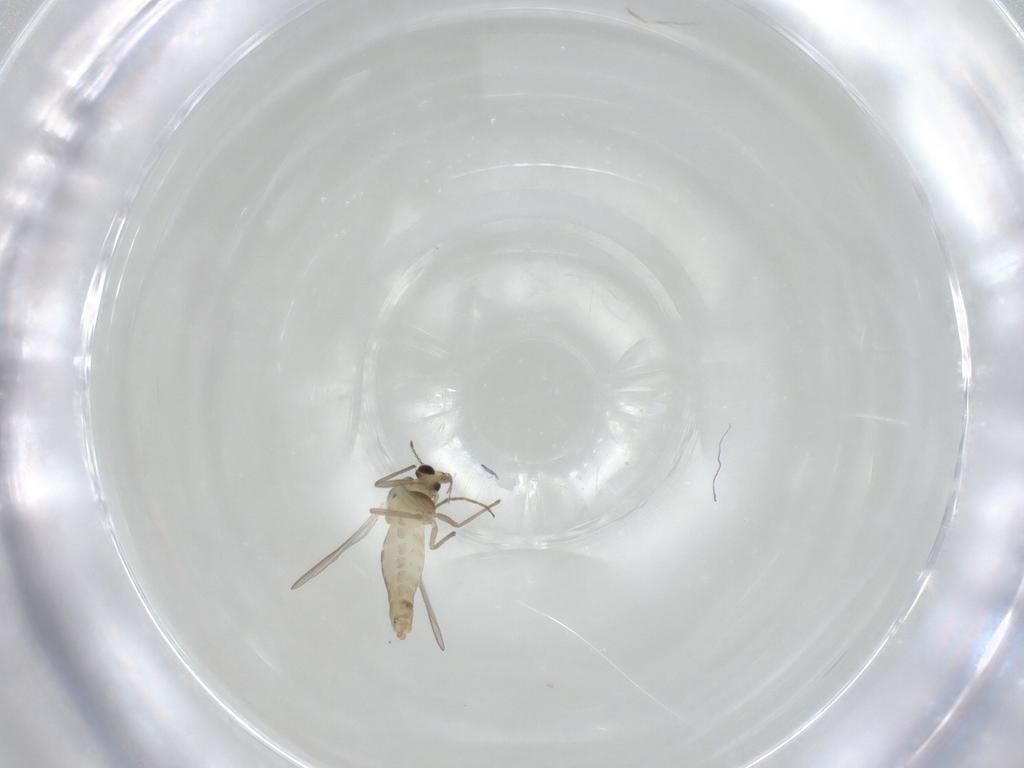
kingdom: Animalia
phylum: Arthropoda
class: Insecta
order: Diptera
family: Chironomidae
